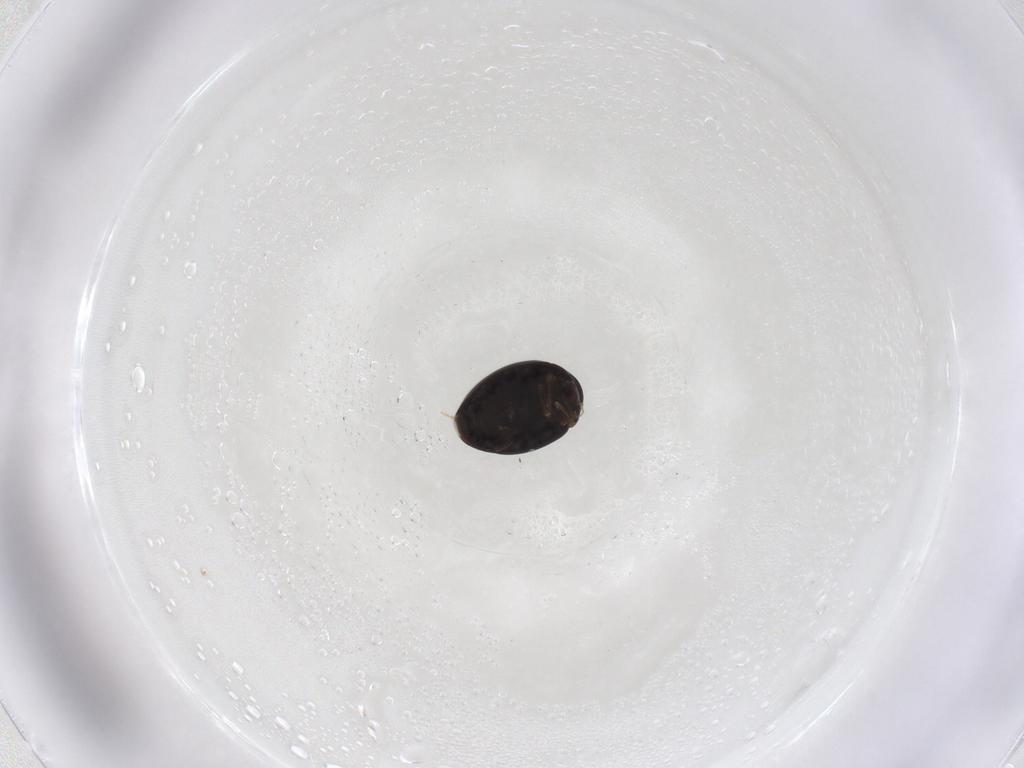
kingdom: Animalia
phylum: Arthropoda
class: Insecta
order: Coleoptera
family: Coccinellidae
